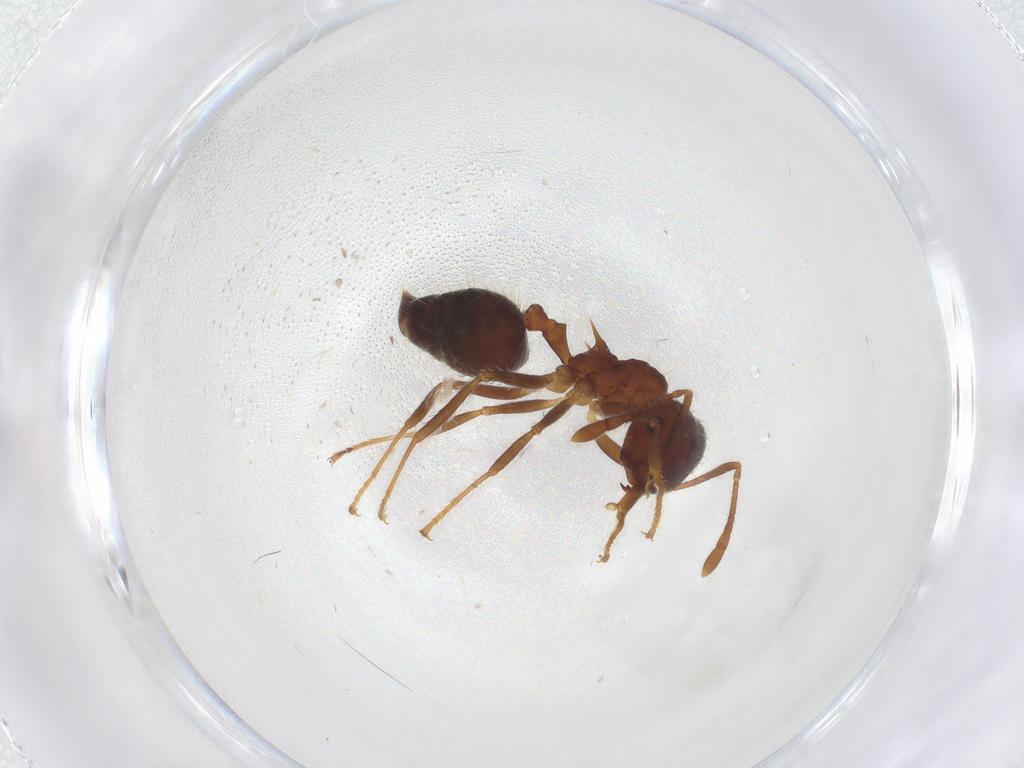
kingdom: Animalia
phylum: Arthropoda
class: Insecta
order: Hymenoptera
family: Formicidae
